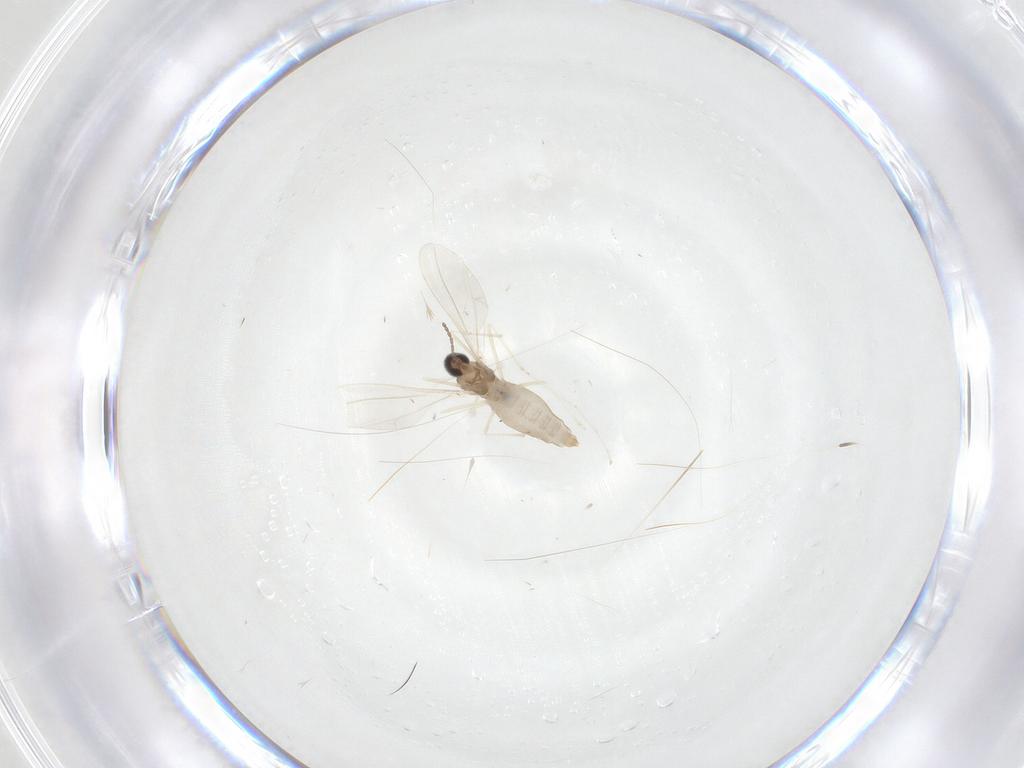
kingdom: Animalia
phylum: Arthropoda
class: Insecta
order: Diptera
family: Cecidomyiidae
